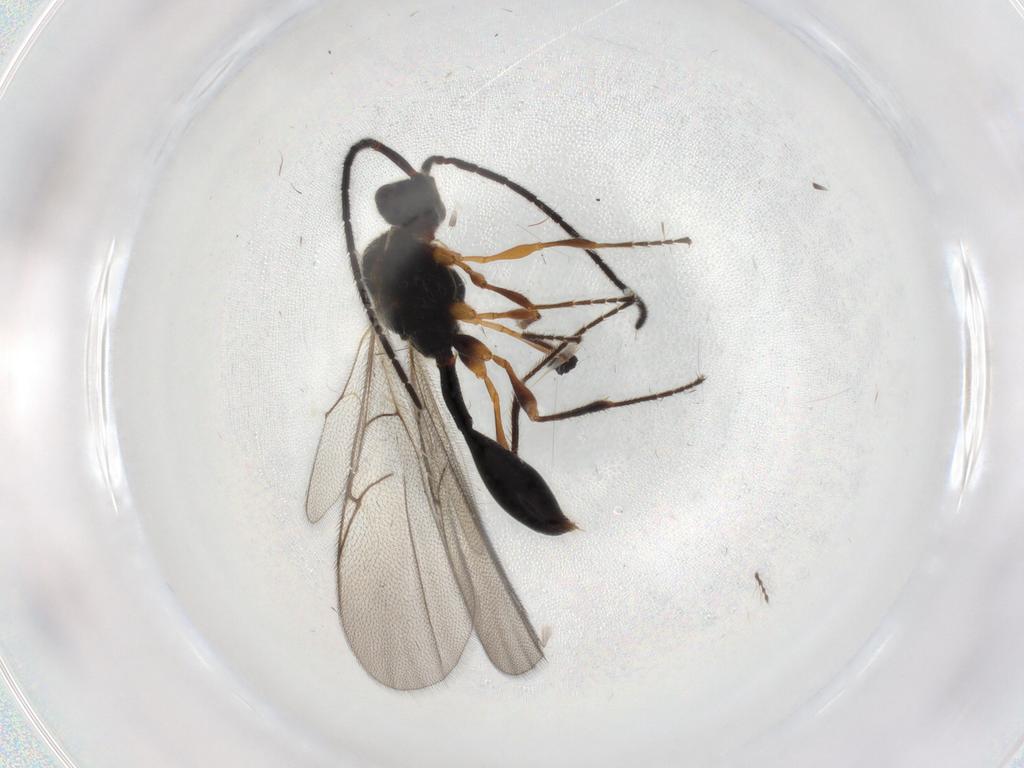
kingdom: Animalia
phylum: Arthropoda
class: Insecta
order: Hymenoptera
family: Diapriidae
